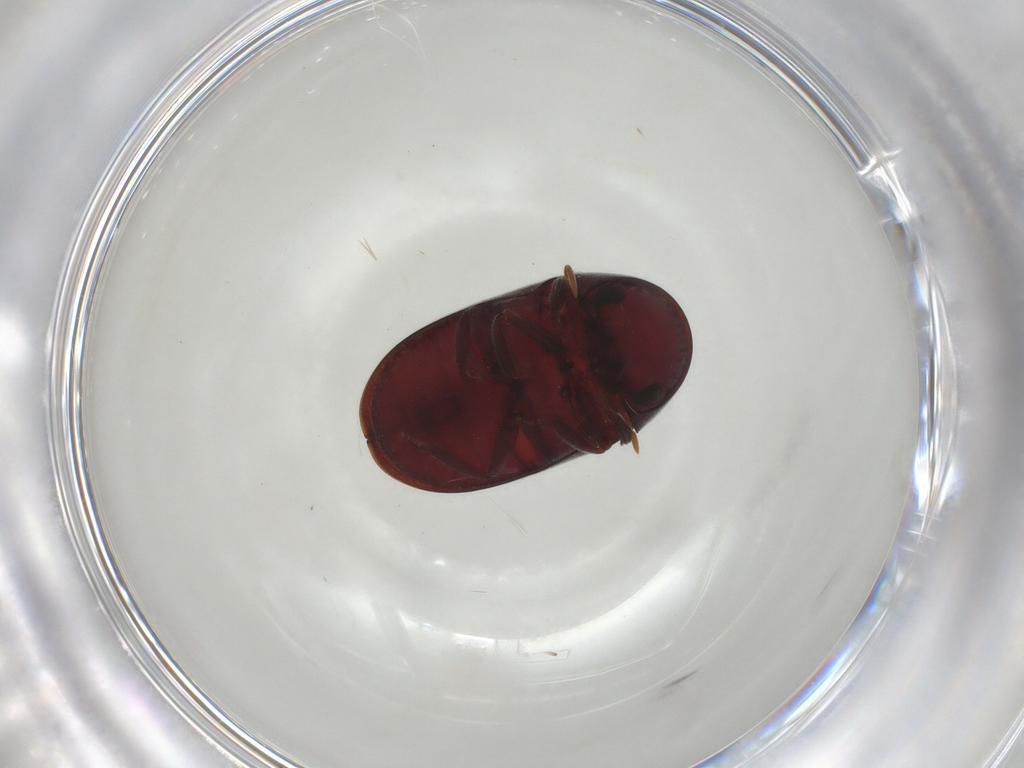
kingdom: Animalia
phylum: Arthropoda
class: Insecta
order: Coleoptera
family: Ptinidae
